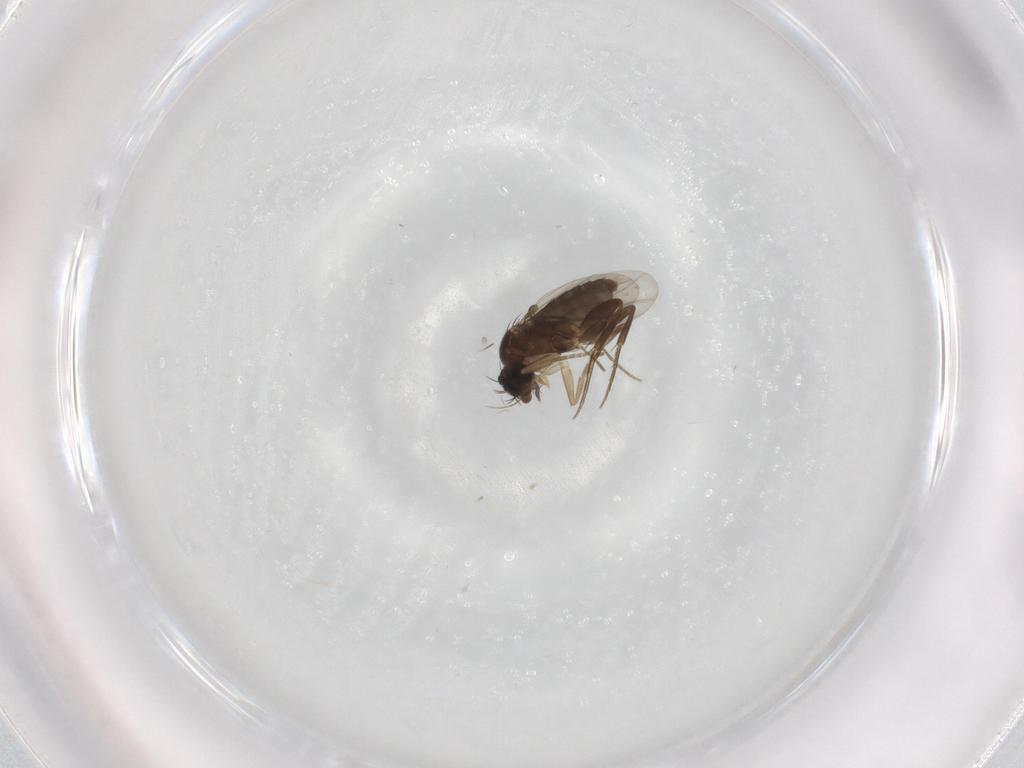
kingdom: Animalia
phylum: Arthropoda
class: Insecta
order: Diptera
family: Phoridae
